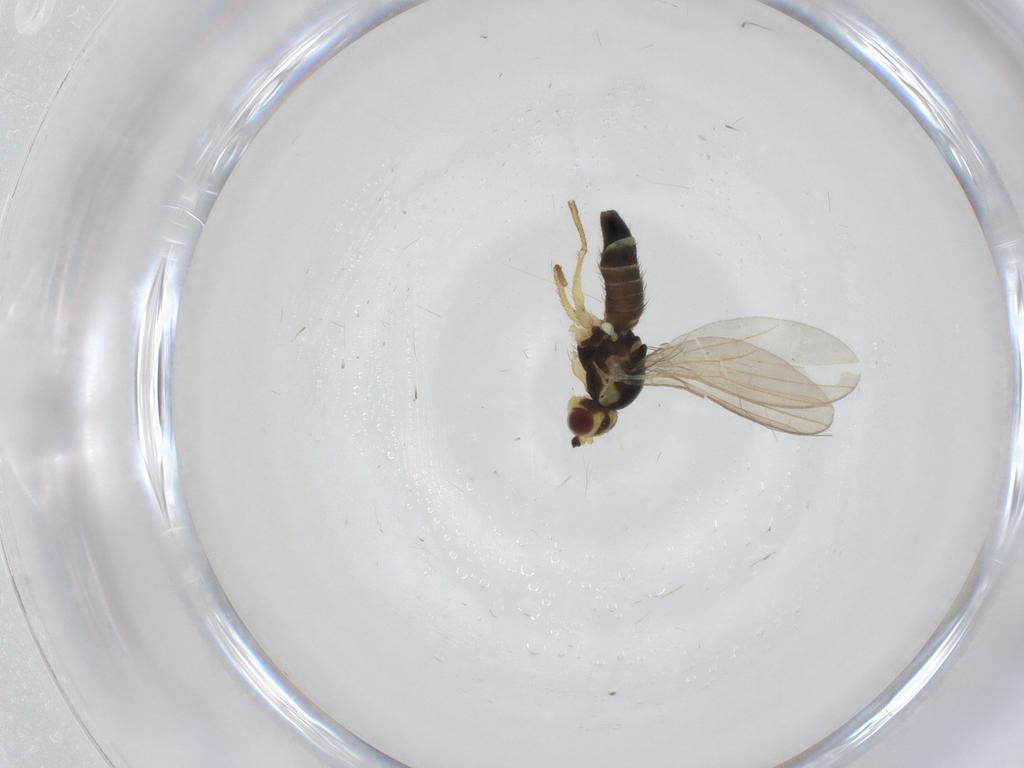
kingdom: Animalia
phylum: Arthropoda
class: Insecta
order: Diptera
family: Agromyzidae
